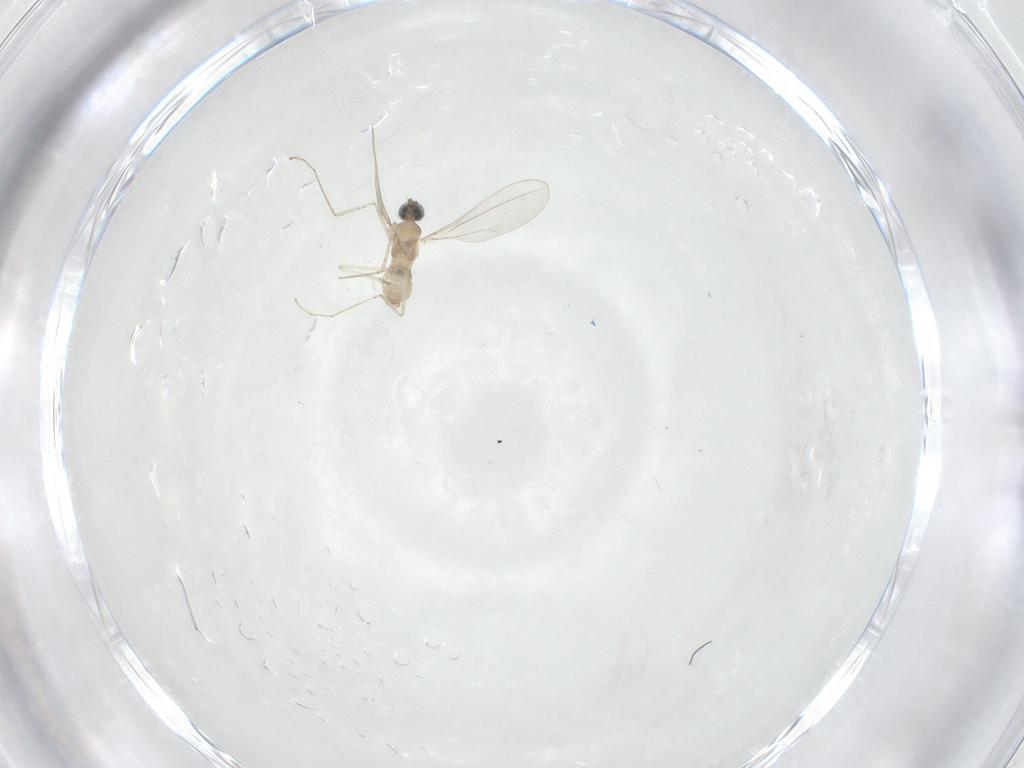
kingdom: Animalia
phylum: Arthropoda
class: Insecta
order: Diptera
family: Cecidomyiidae
